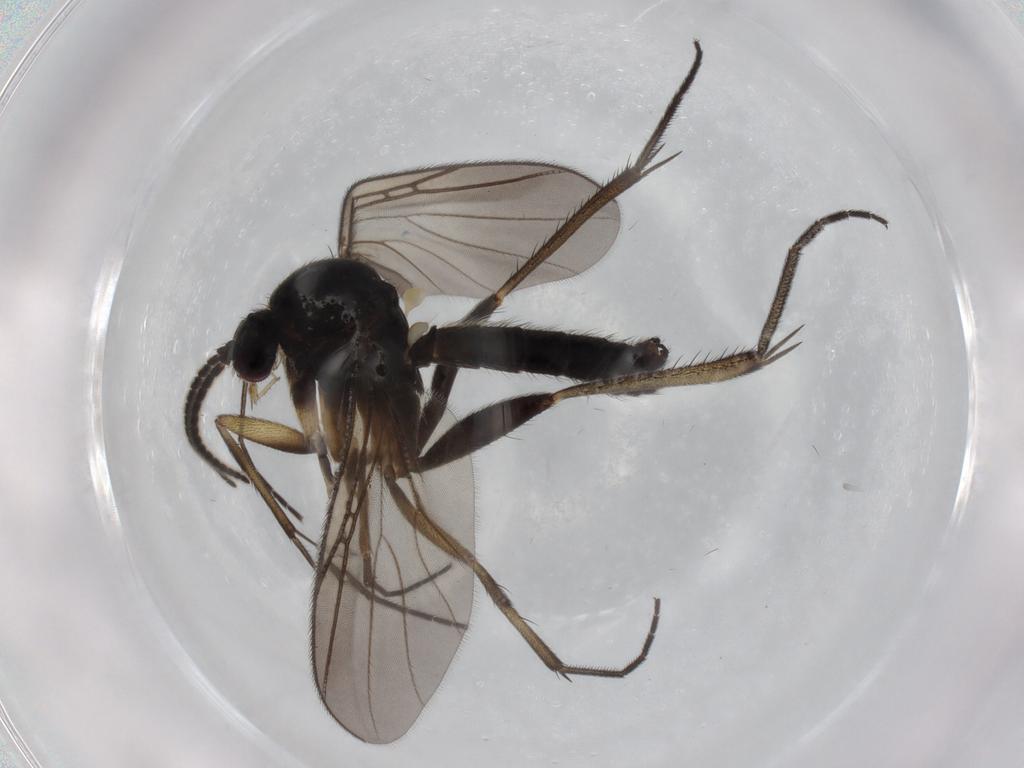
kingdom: Animalia
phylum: Arthropoda
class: Insecta
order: Diptera
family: Mycetophilidae
